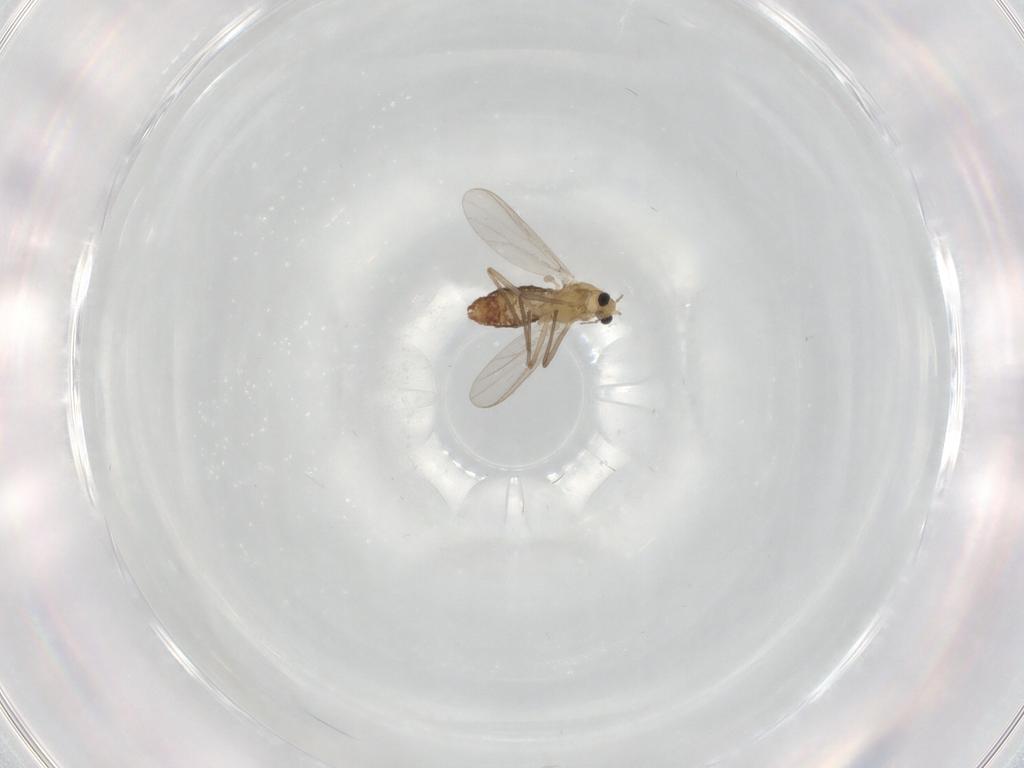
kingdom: Animalia
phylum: Arthropoda
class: Insecta
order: Diptera
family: Chironomidae
